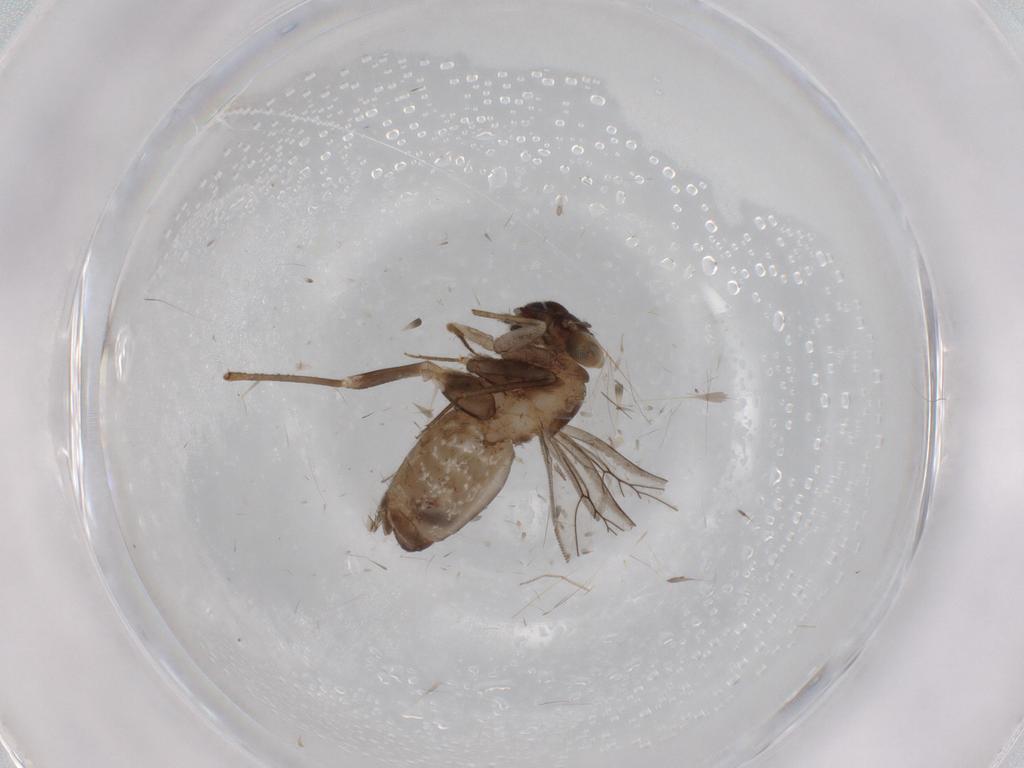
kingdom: Animalia
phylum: Arthropoda
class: Insecta
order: Psocodea
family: Lepidopsocidae
